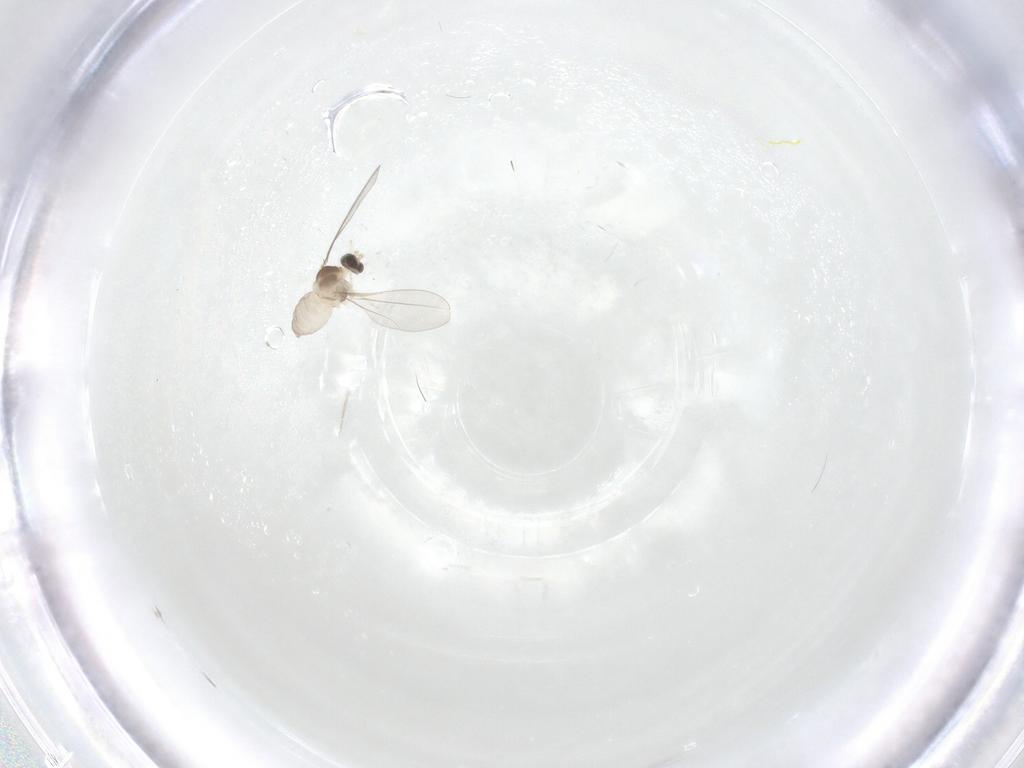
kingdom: Animalia
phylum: Arthropoda
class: Insecta
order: Diptera
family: Cecidomyiidae
